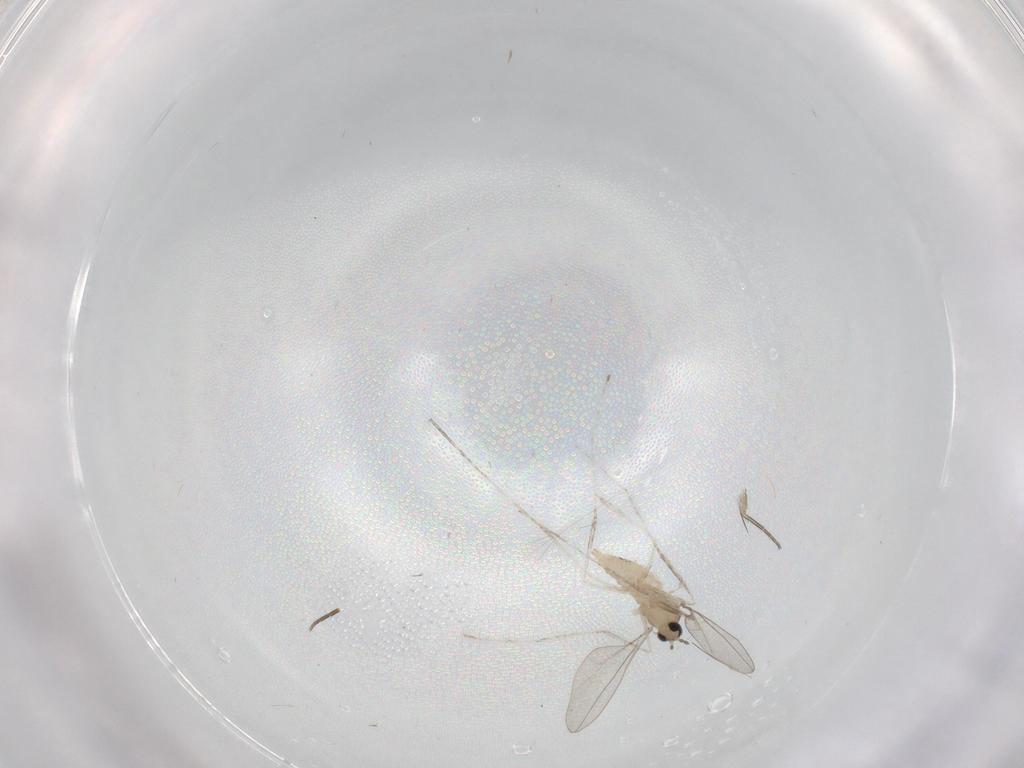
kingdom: Animalia
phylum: Arthropoda
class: Insecta
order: Diptera
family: Cecidomyiidae
